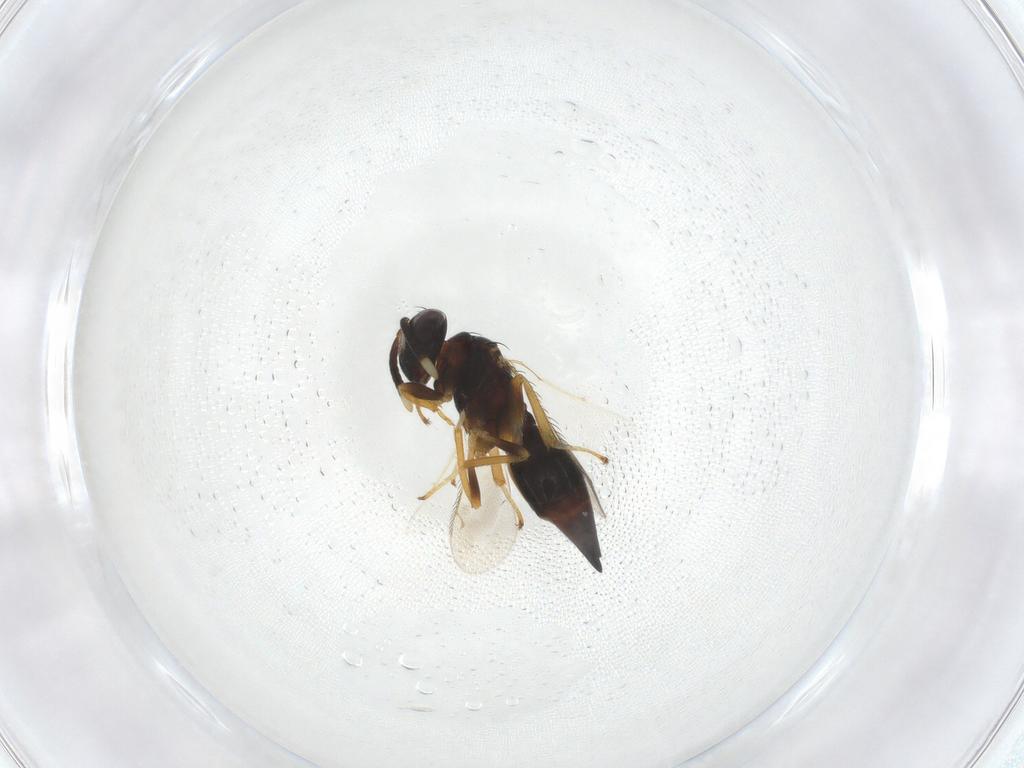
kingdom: Animalia
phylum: Arthropoda
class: Insecta
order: Hymenoptera
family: Diparidae
